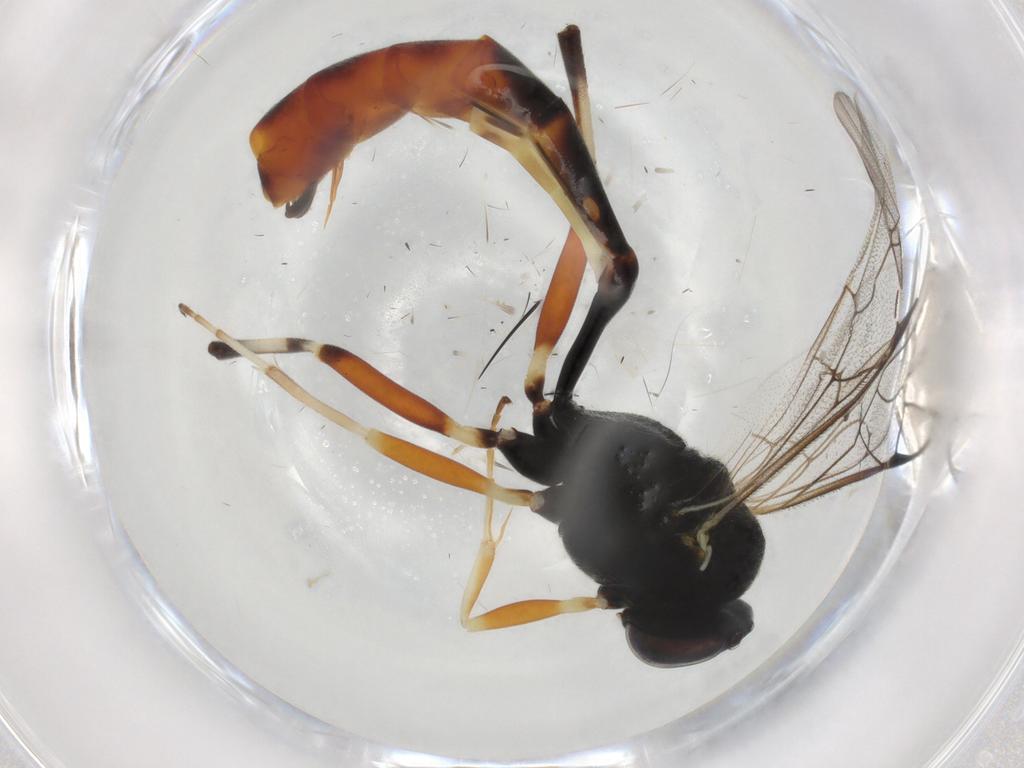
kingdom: Animalia
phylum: Arthropoda
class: Insecta
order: Hymenoptera
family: Ichneumonidae
